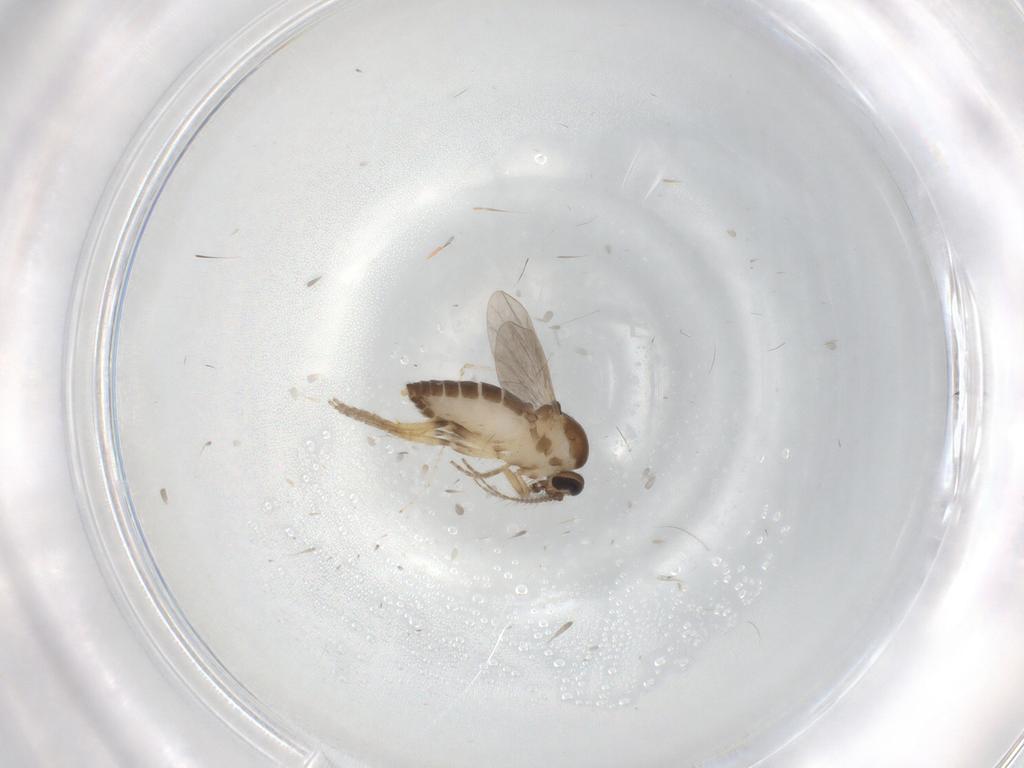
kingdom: Animalia
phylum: Arthropoda
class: Insecta
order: Diptera
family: Ceratopogonidae
